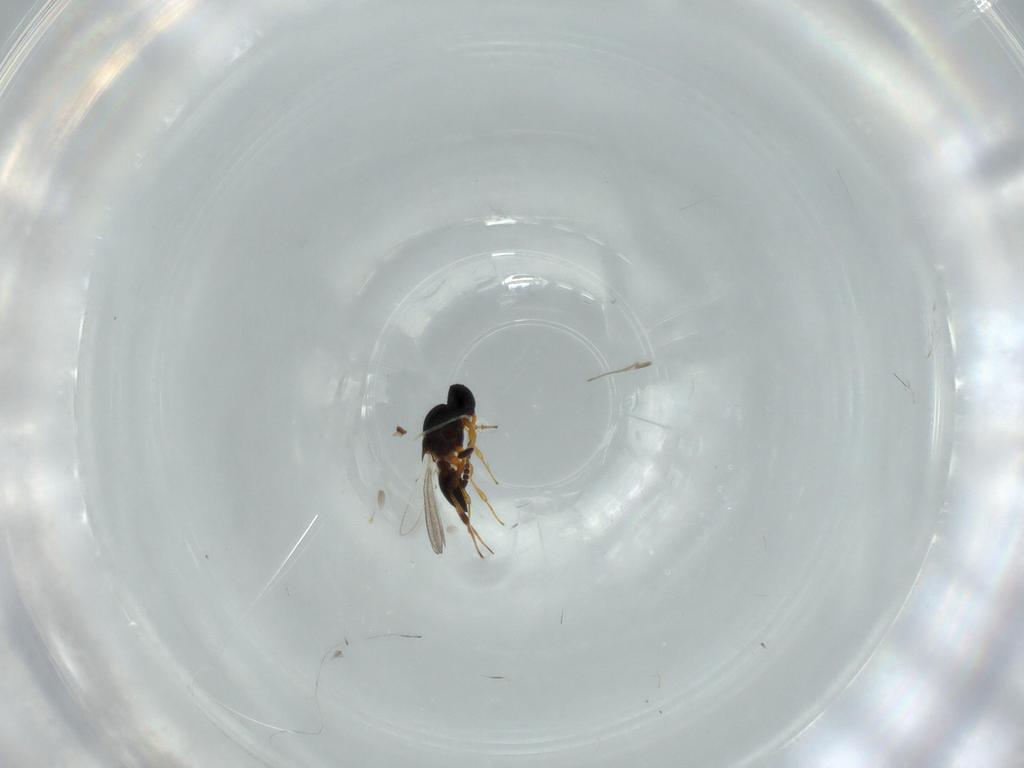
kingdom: Animalia
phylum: Arthropoda
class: Insecta
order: Hymenoptera
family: Platygastridae
